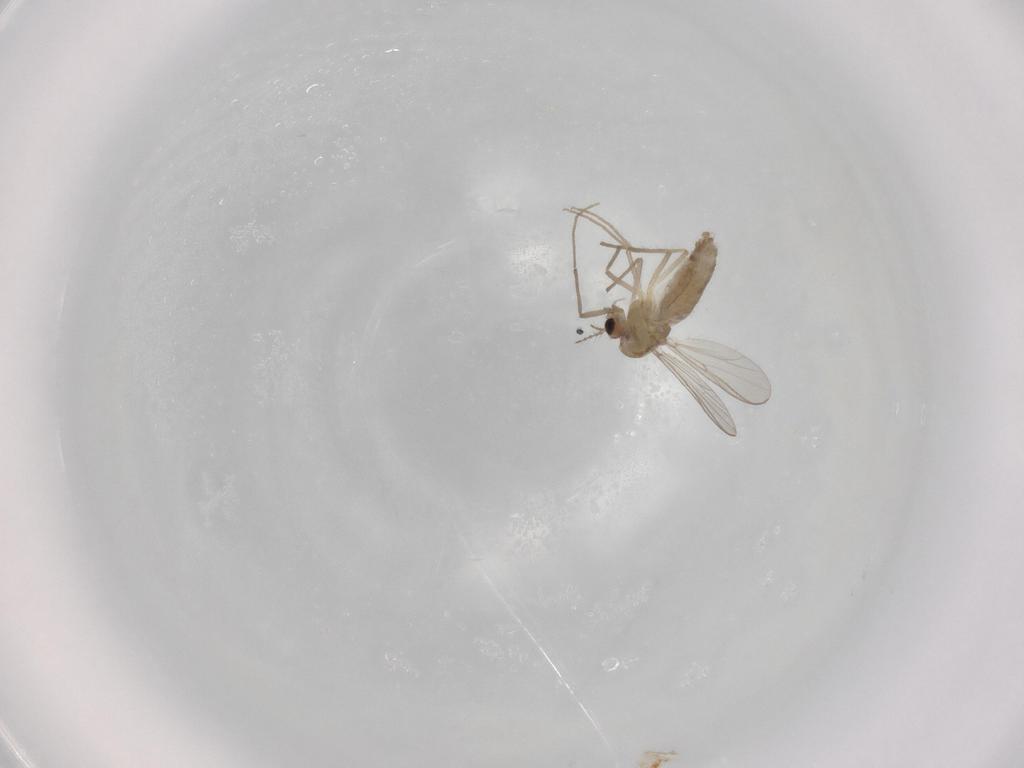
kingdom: Animalia
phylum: Arthropoda
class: Insecta
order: Diptera
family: Chironomidae
